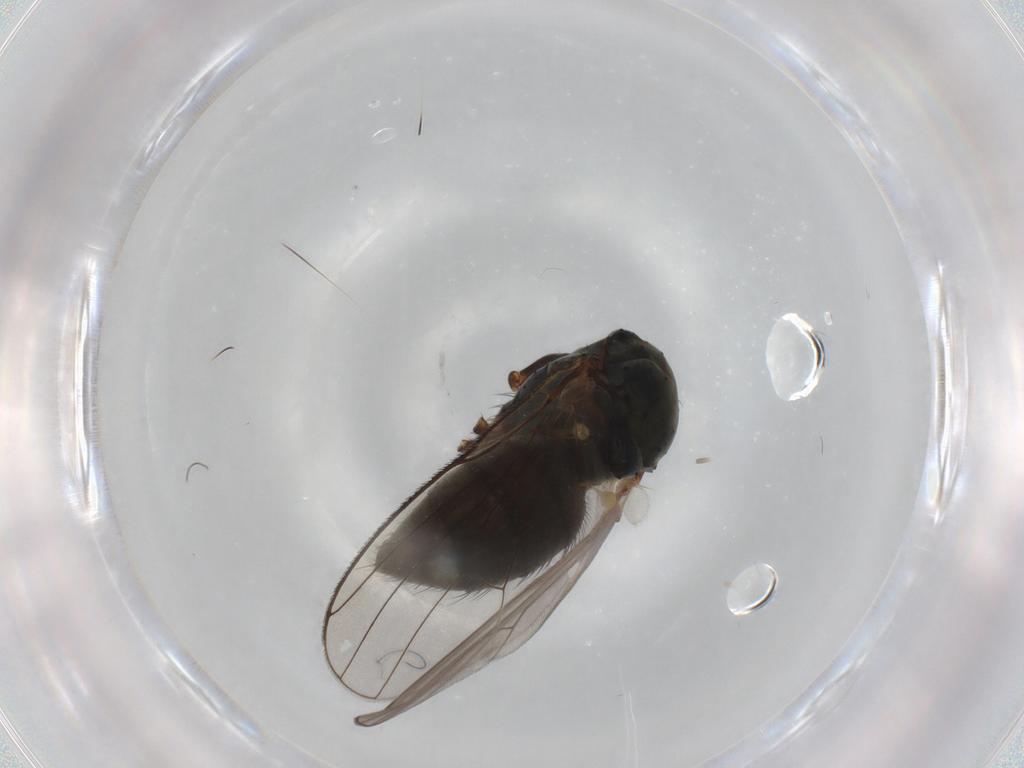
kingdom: Animalia
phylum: Arthropoda
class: Insecta
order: Diptera
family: Muscidae
